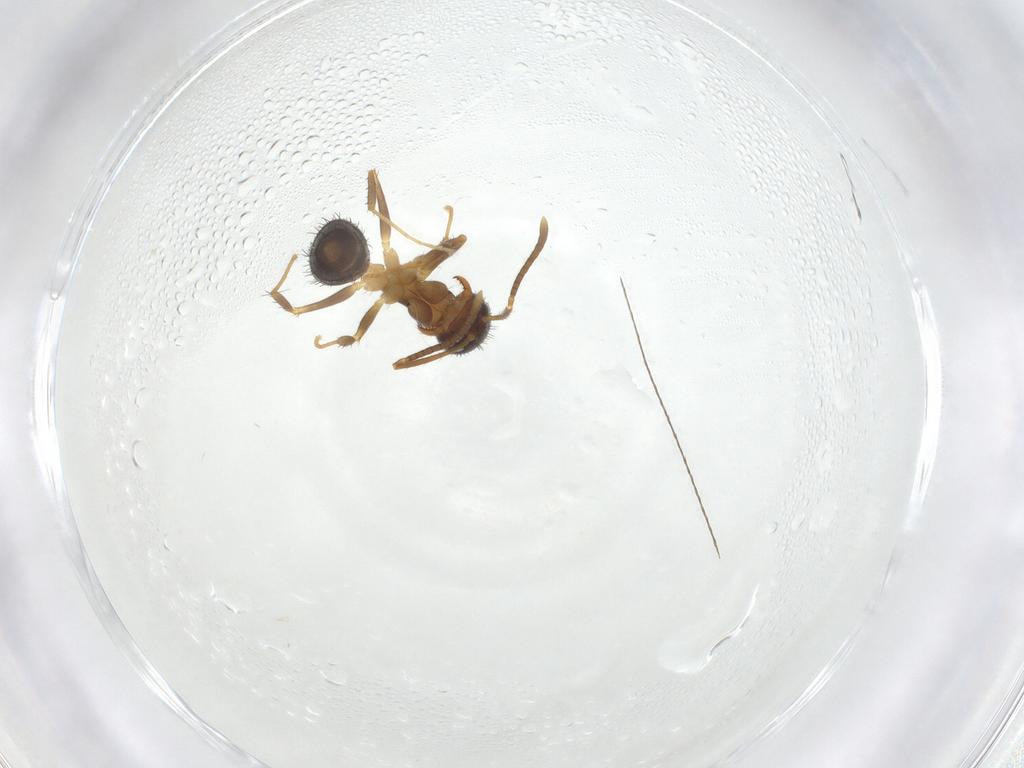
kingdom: Animalia
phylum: Arthropoda
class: Insecta
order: Hymenoptera
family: Formicidae
